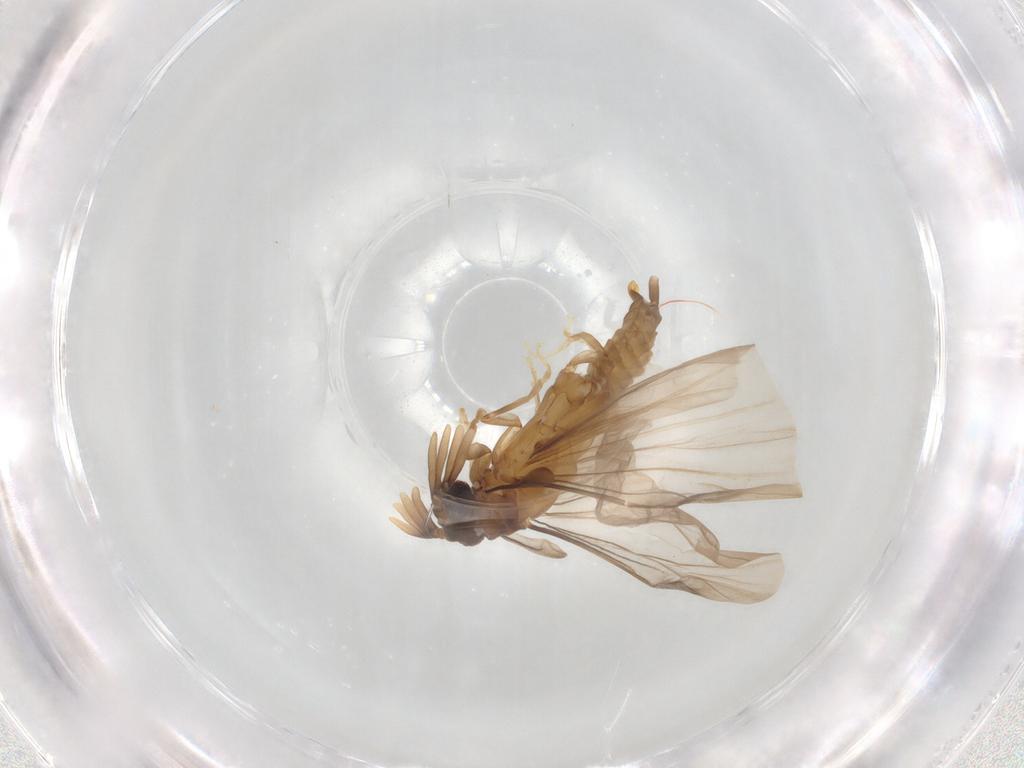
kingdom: Animalia
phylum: Arthropoda
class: Insecta
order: Strepsiptera
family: Mengenillidae
